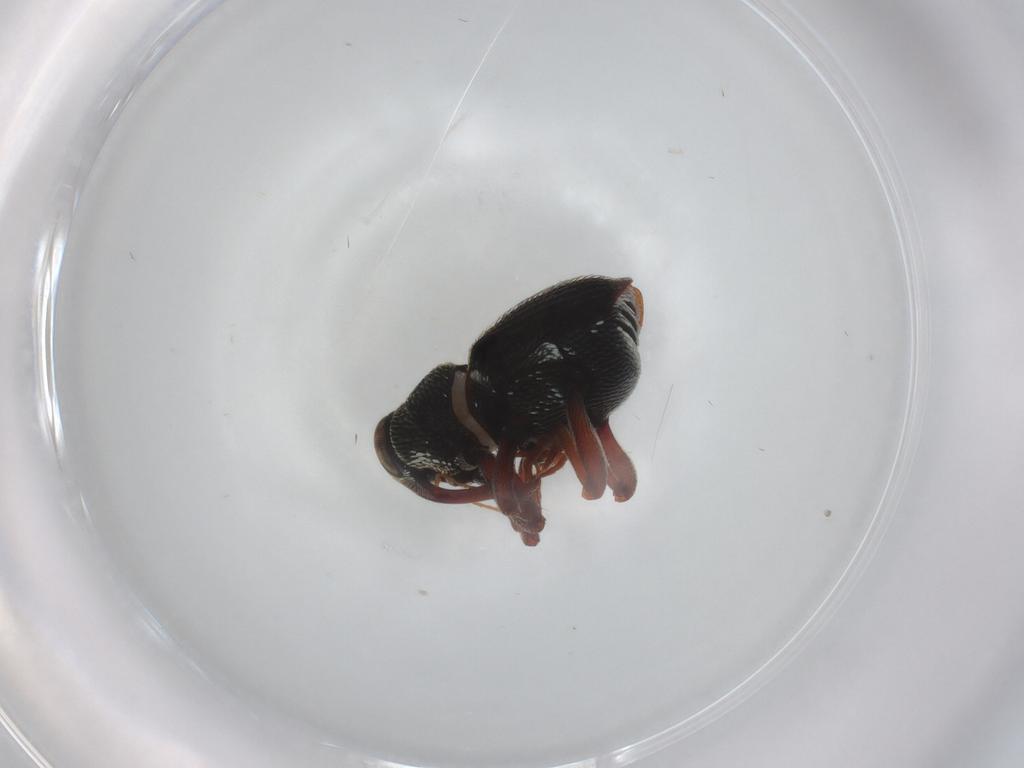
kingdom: Animalia
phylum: Arthropoda
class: Insecta
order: Coleoptera
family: Curculionidae
